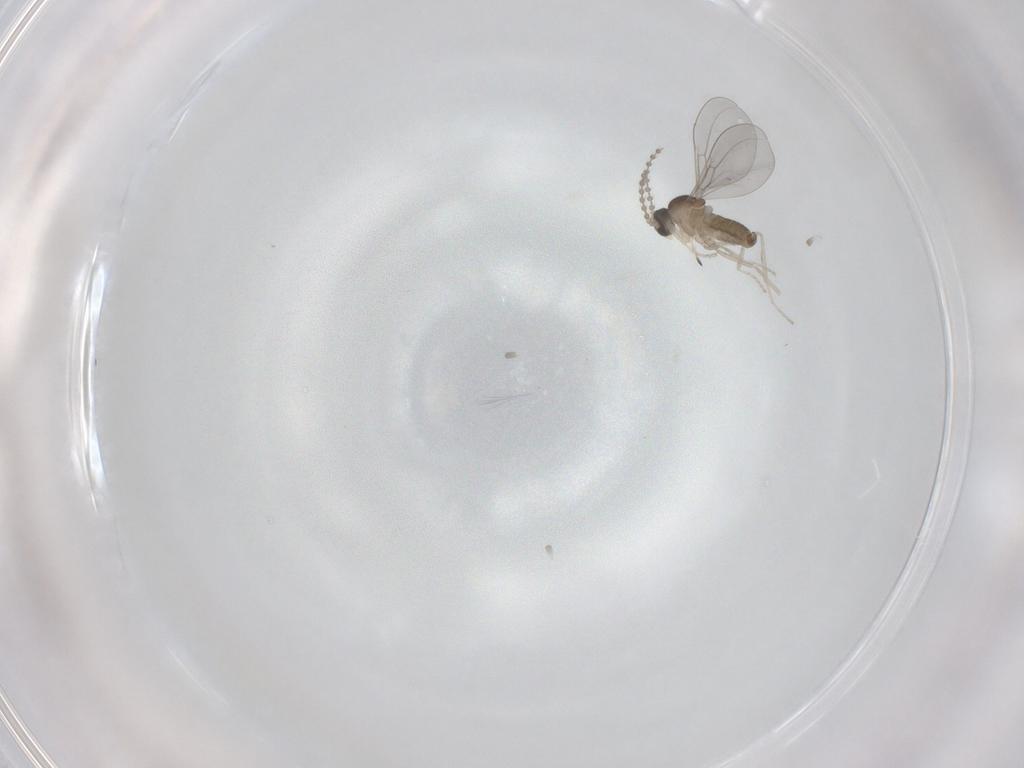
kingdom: Animalia
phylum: Arthropoda
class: Insecta
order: Diptera
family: Cecidomyiidae
